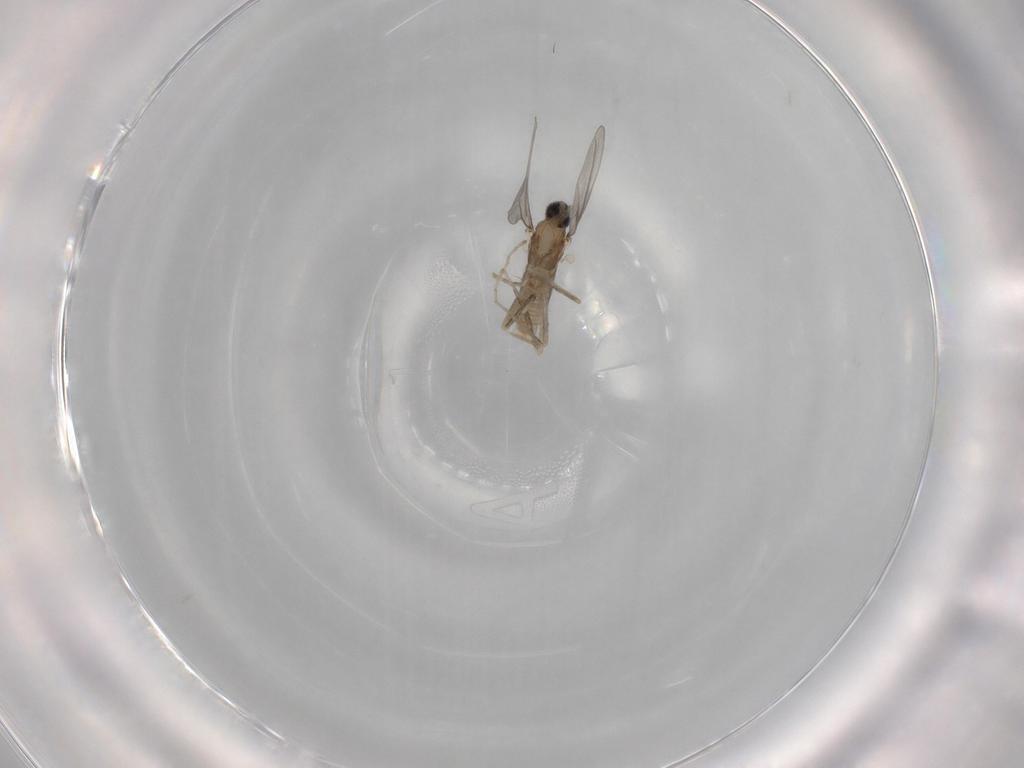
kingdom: Animalia
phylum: Arthropoda
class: Insecta
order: Diptera
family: Cecidomyiidae
